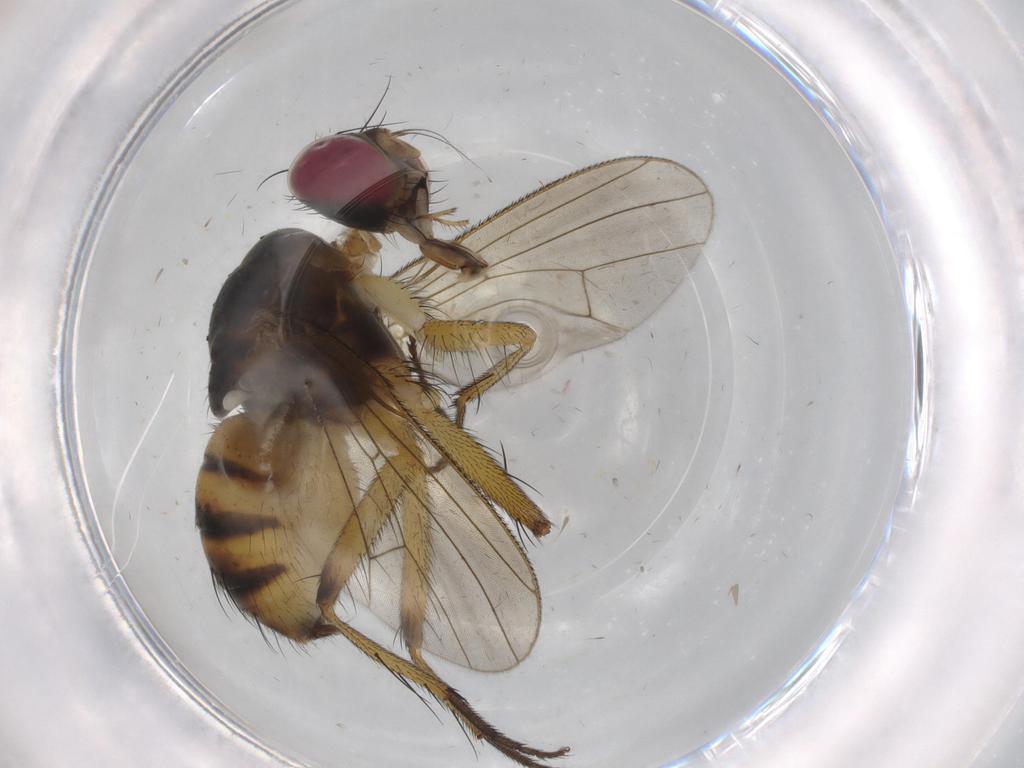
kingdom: Animalia
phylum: Arthropoda
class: Insecta
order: Diptera
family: Muscidae
